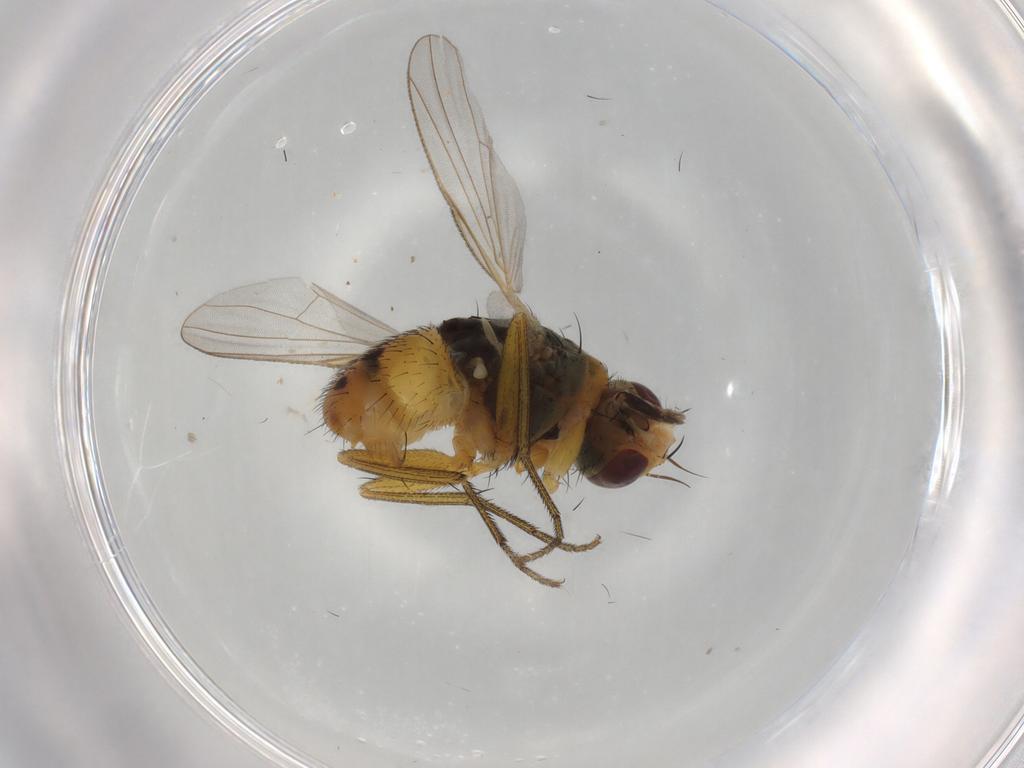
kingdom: Animalia
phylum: Arthropoda
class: Insecta
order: Diptera
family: Muscidae
